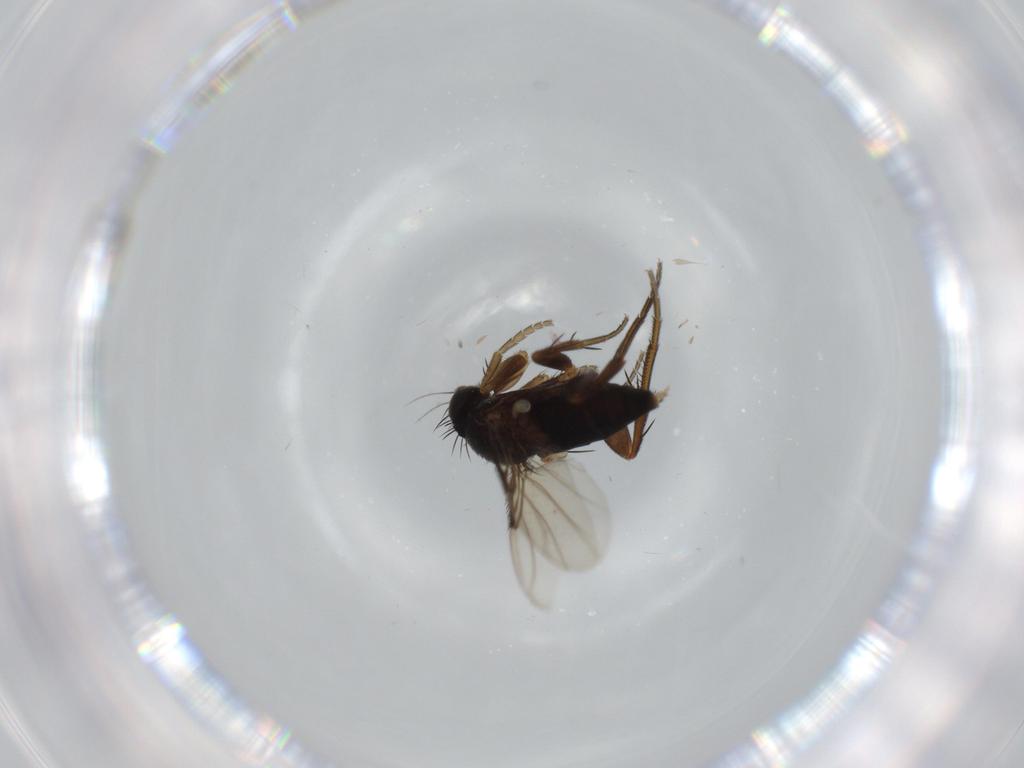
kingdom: Animalia
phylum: Arthropoda
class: Insecta
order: Diptera
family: Phoridae
